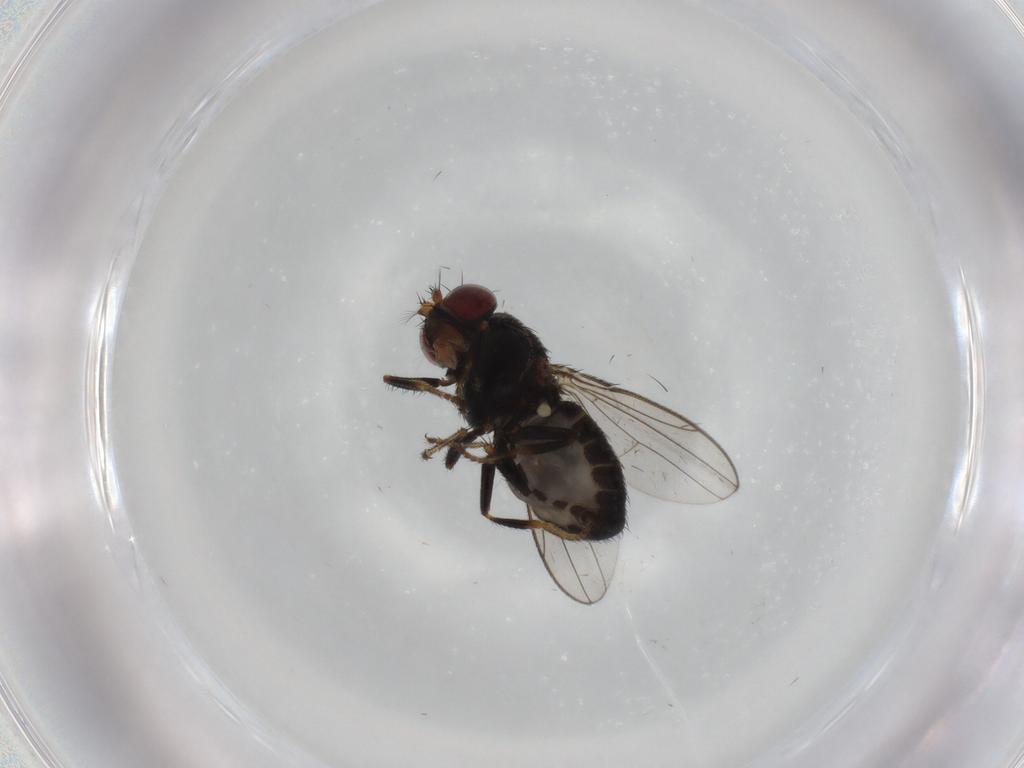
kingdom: Animalia
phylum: Arthropoda
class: Insecta
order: Diptera
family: Ephydridae
